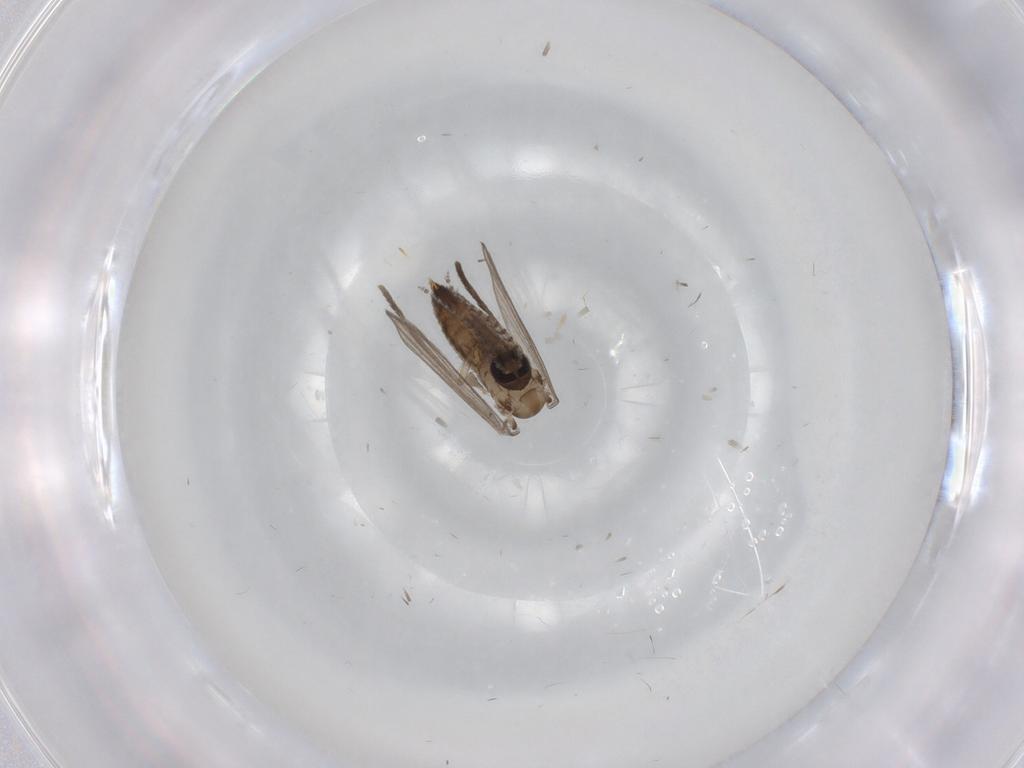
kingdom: Animalia
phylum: Arthropoda
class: Insecta
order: Diptera
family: Psychodidae
